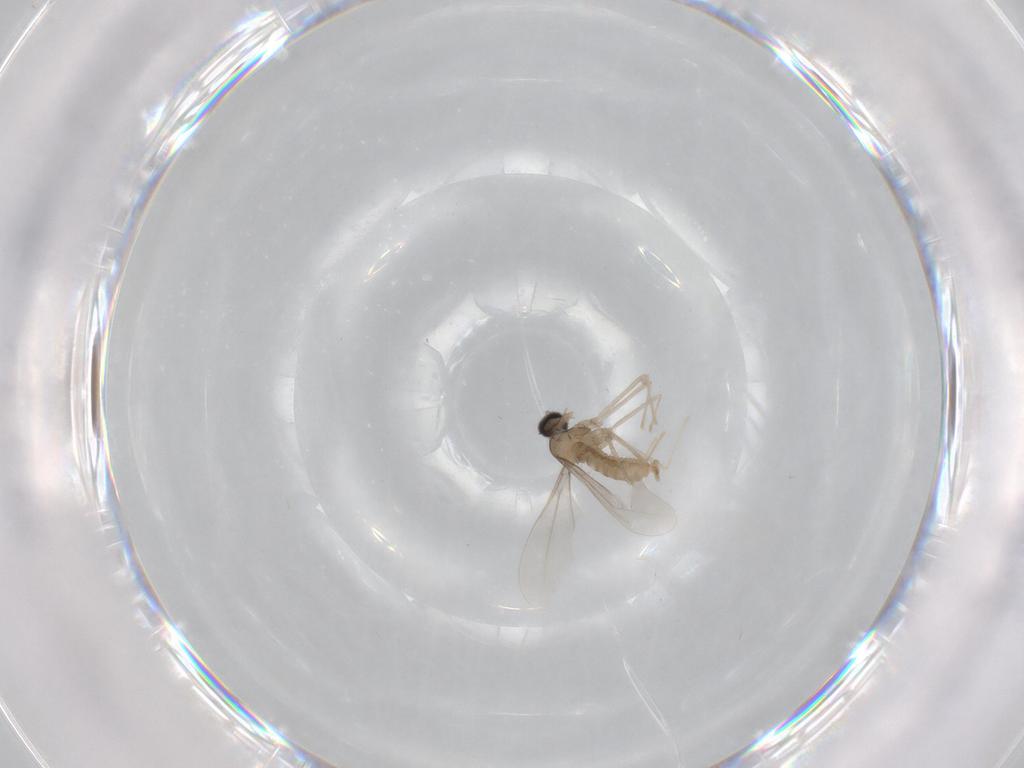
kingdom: Animalia
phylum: Arthropoda
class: Insecta
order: Diptera
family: Cecidomyiidae
